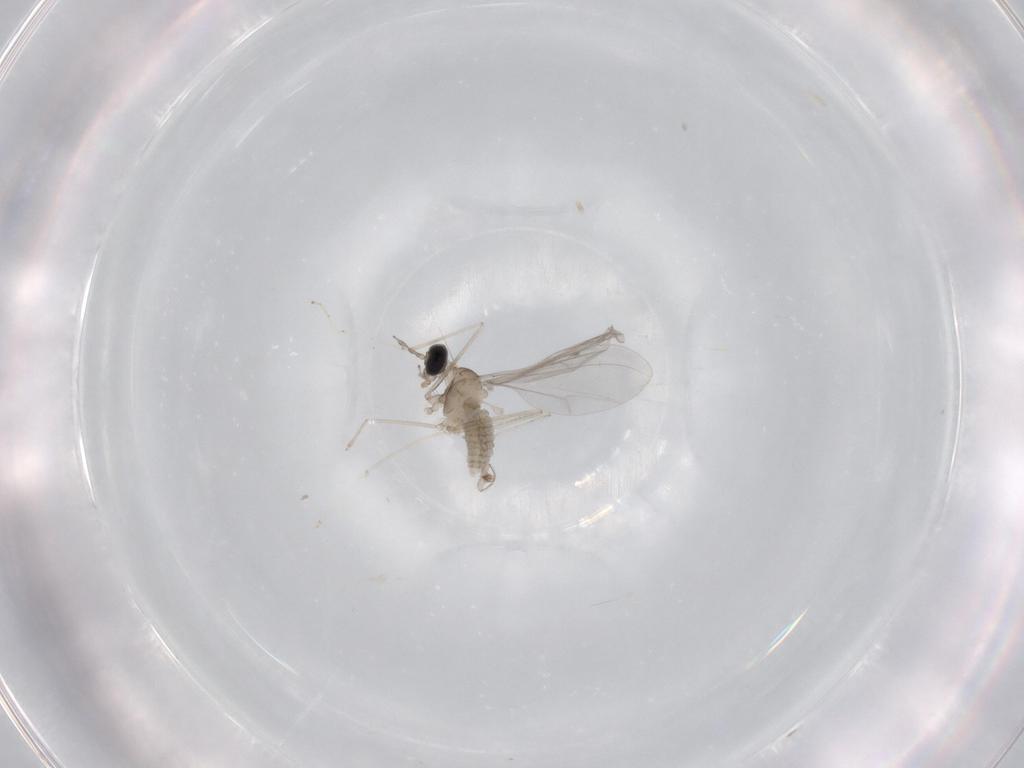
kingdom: Animalia
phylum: Arthropoda
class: Insecta
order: Diptera
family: Cecidomyiidae
